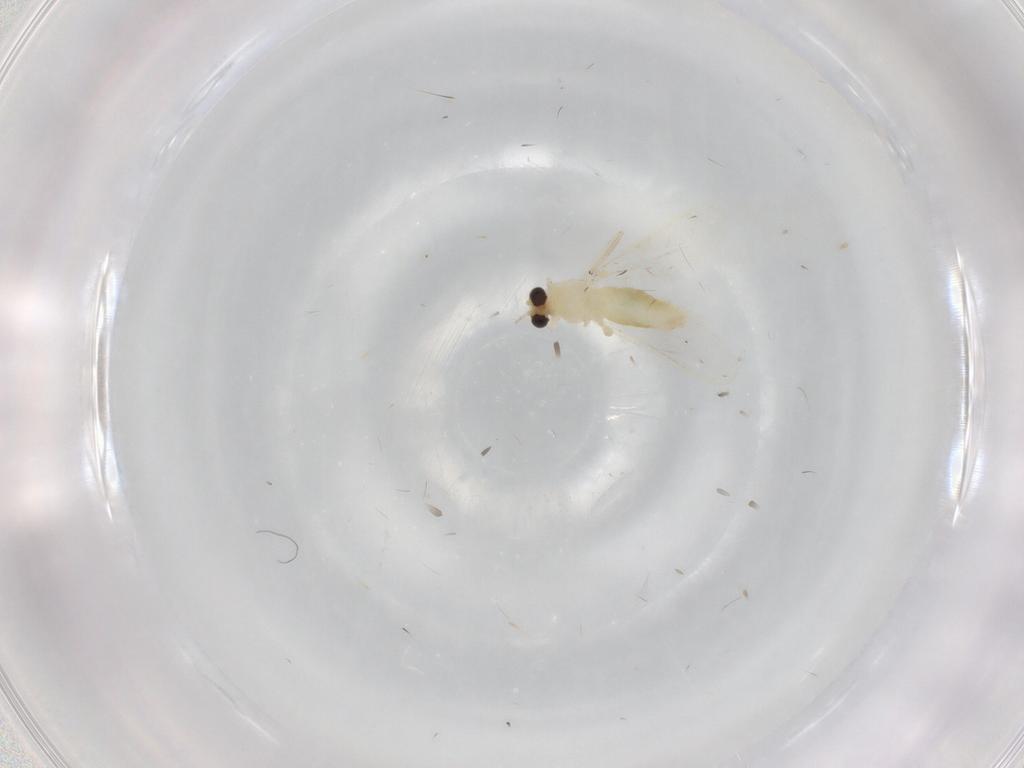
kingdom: Animalia
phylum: Arthropoda
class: Insecta
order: Diptera
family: Chironomidae
